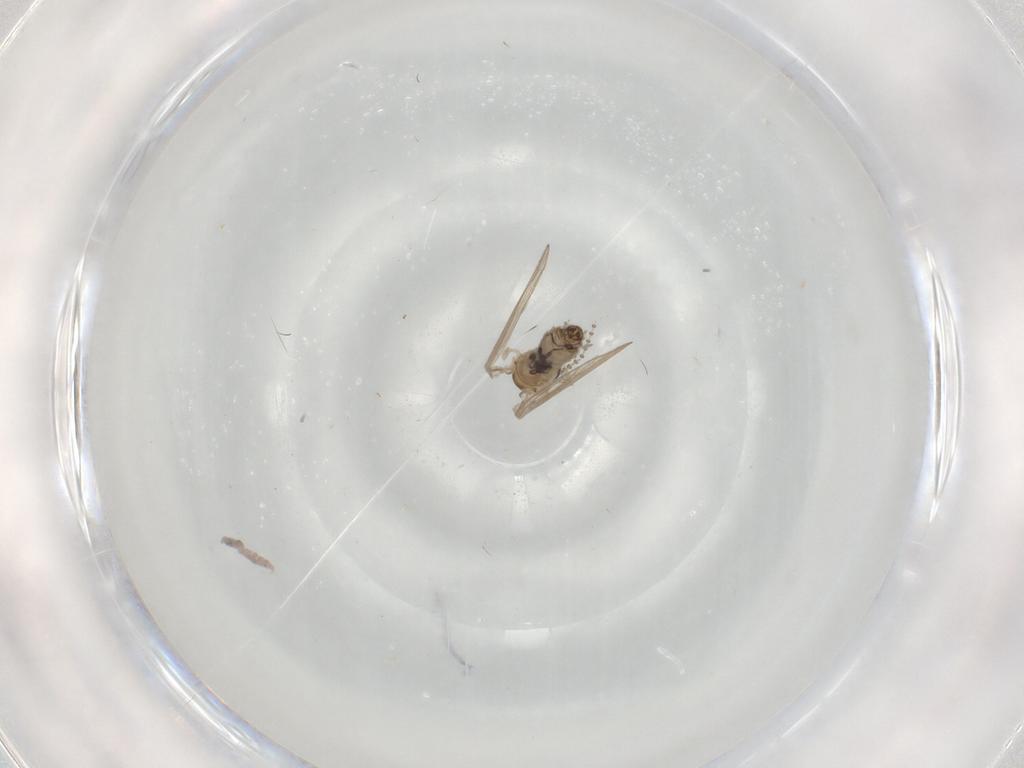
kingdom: Animalia
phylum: Arthropoda
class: Insecta
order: Diptera
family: Psychodidae
